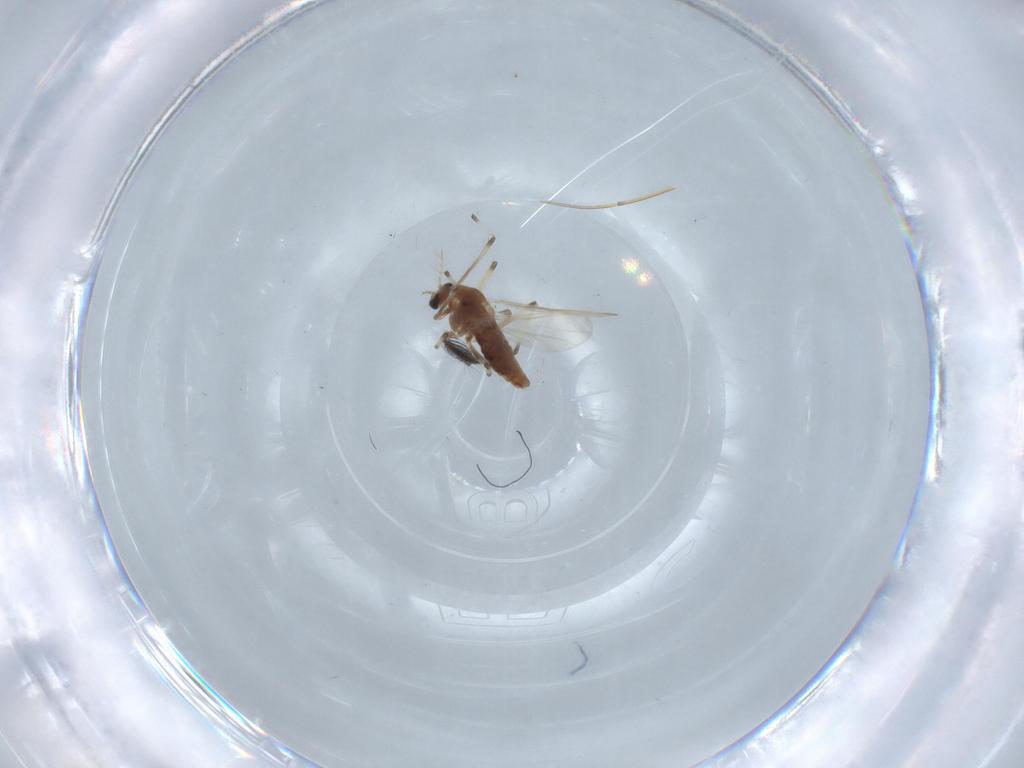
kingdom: Animalia
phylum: Arthropoda
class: Insecta
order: Diptera
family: Chironomidae
